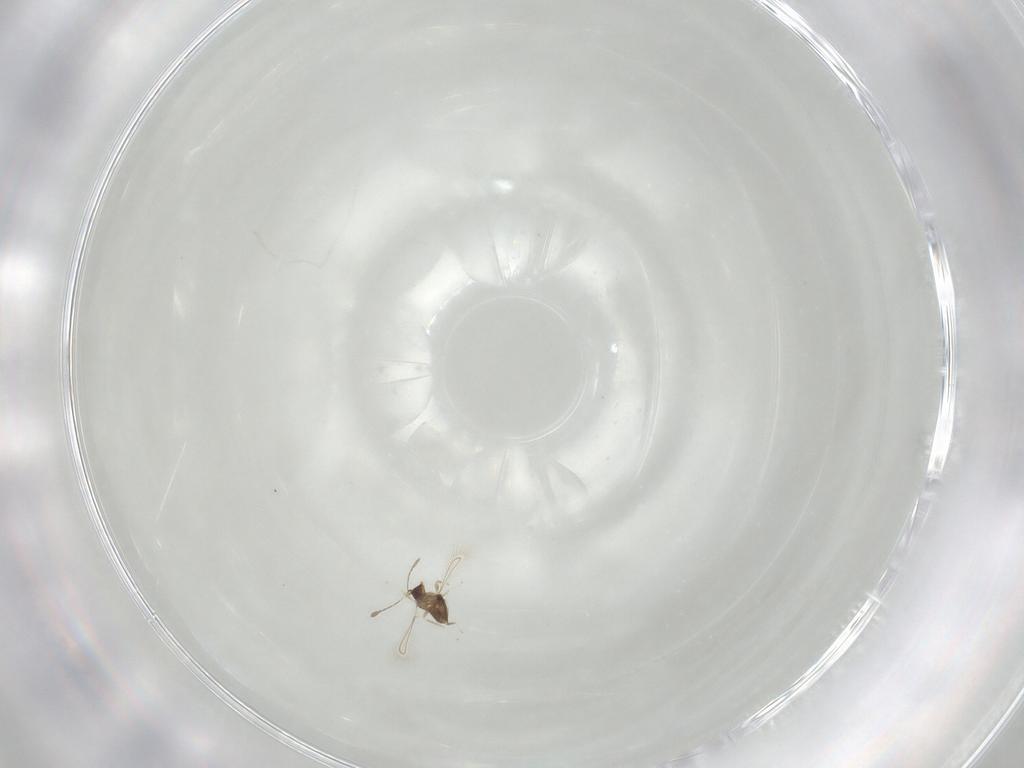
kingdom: Animalia
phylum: Arthropoda
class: Insecta
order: Hymenoptera
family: Mymaridae
